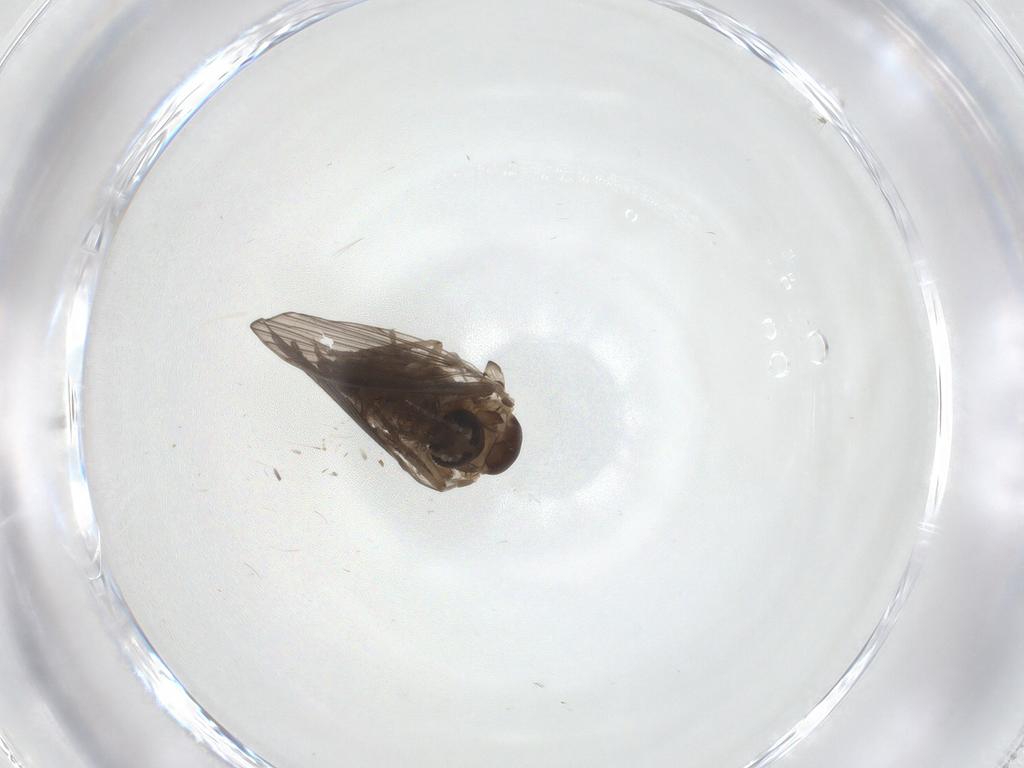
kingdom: Animalia
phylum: Arthropoda
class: Insecta
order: Diptera
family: Psychodidae
